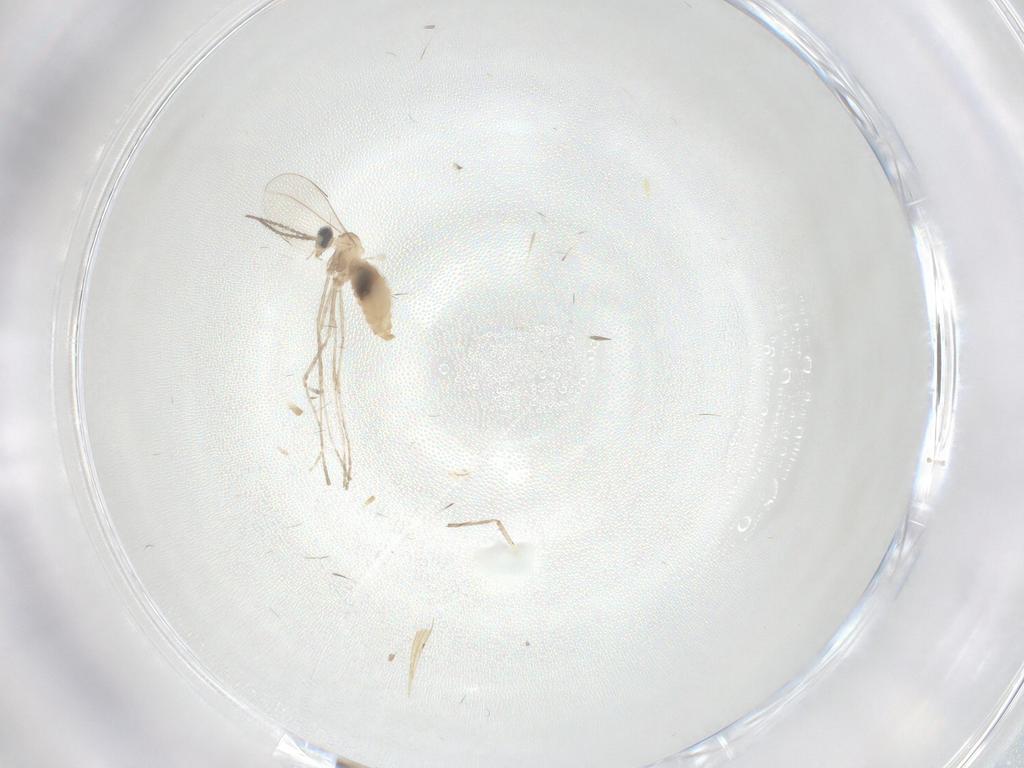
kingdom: Animalia
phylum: Arthropoda
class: Insecta
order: Diptera
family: Chironomidae
